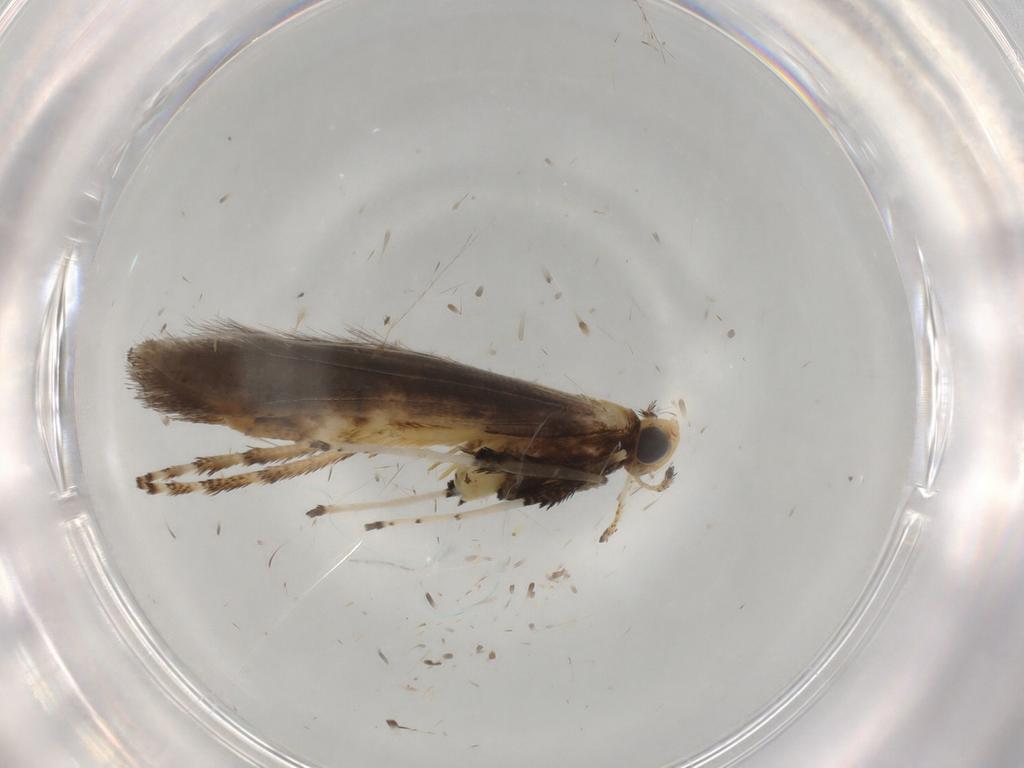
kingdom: Animalia
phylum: Arthropoda
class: Insecta
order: Lepidoptera
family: Gracillariidae
